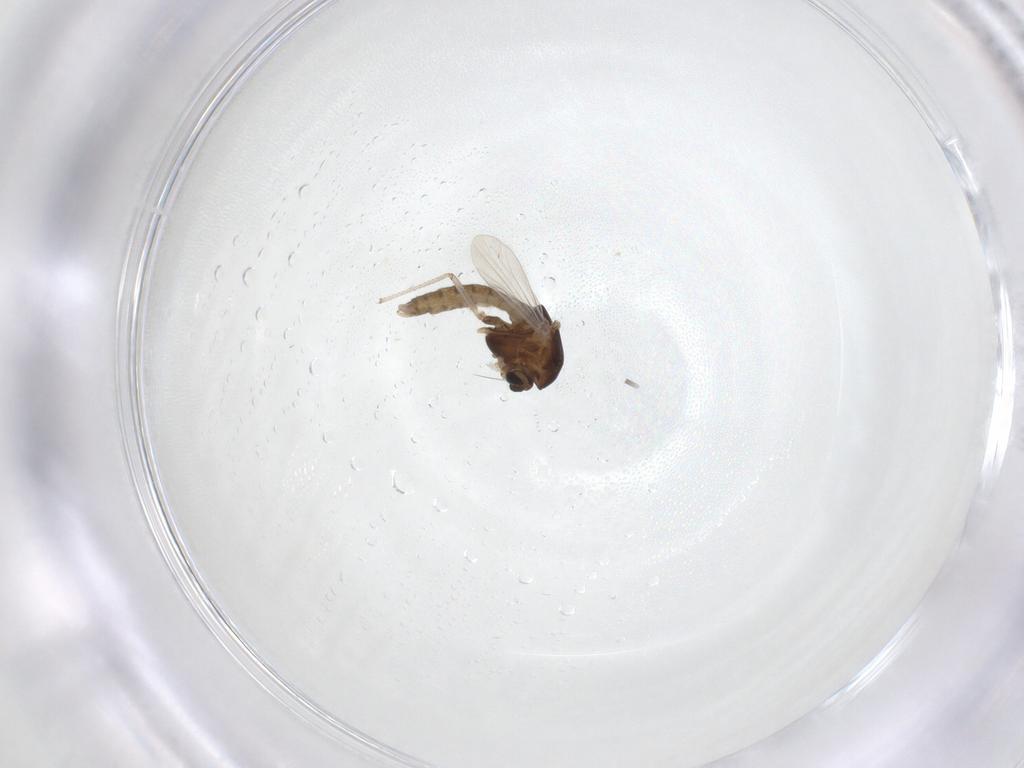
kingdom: Animalia
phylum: Arthropoda
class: Insecta
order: Diptera
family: Chironomidae
